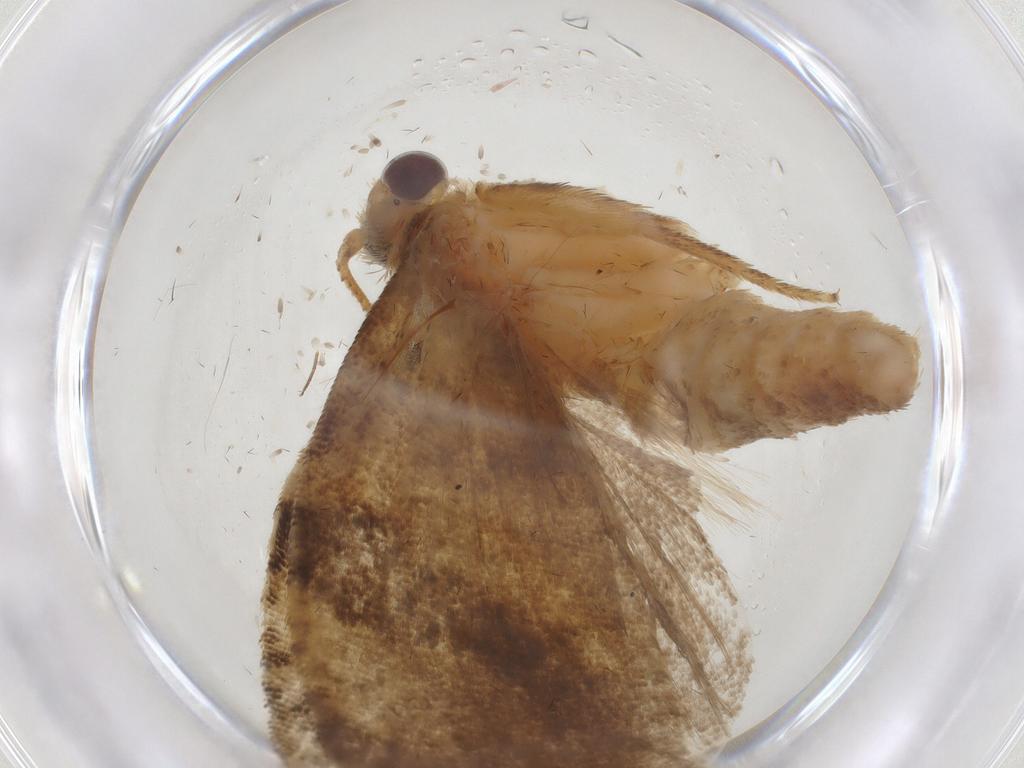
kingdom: Animalia
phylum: Arthropoda
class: Insecta
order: Lepidoptera
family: Tortricidae
